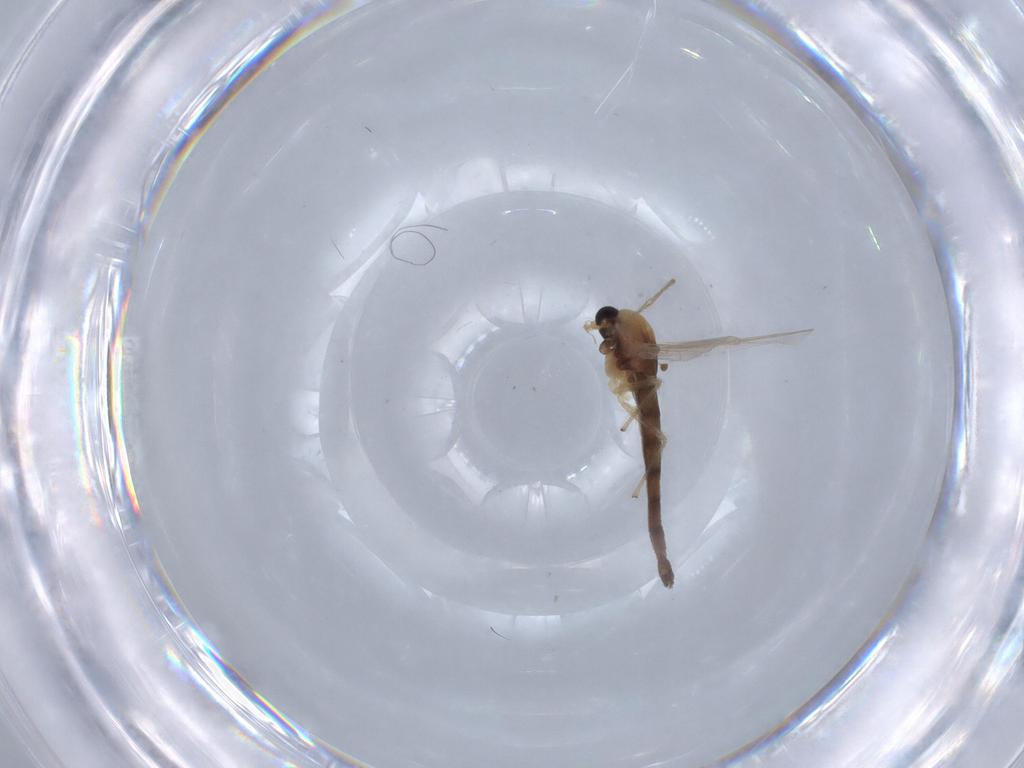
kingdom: Animalia
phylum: Arthropoda
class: Insecta
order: Diptera
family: Chironomidae
